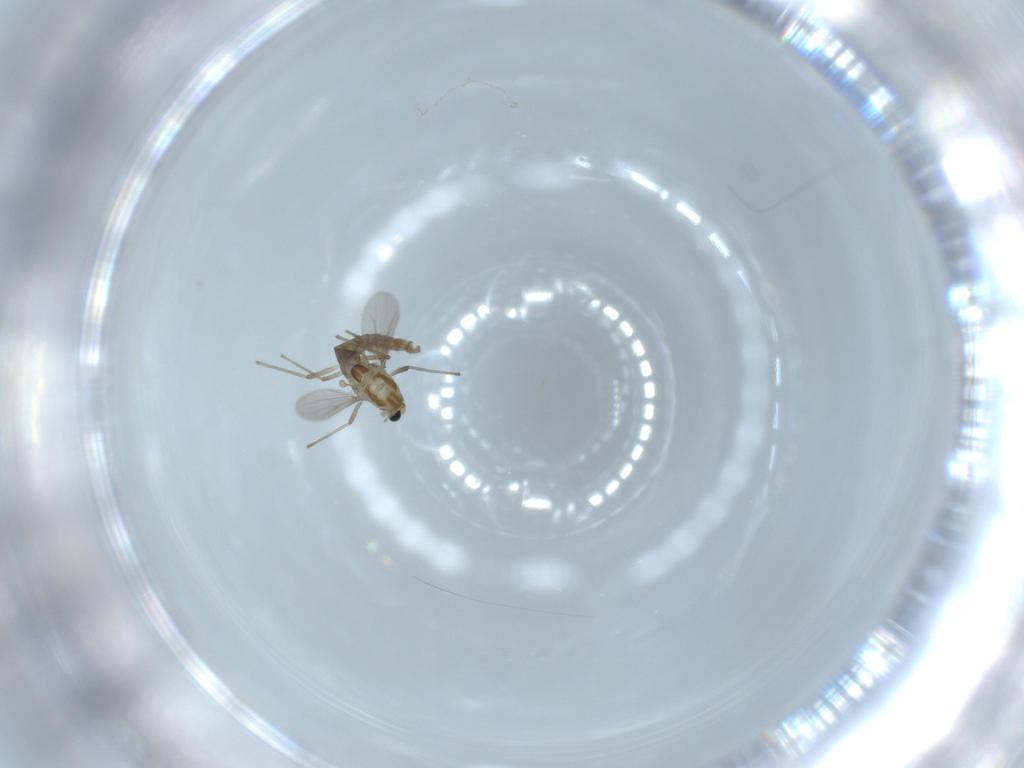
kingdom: Animalia
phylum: Arthropoda
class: Insecta
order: Diptera
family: Chironomidae
